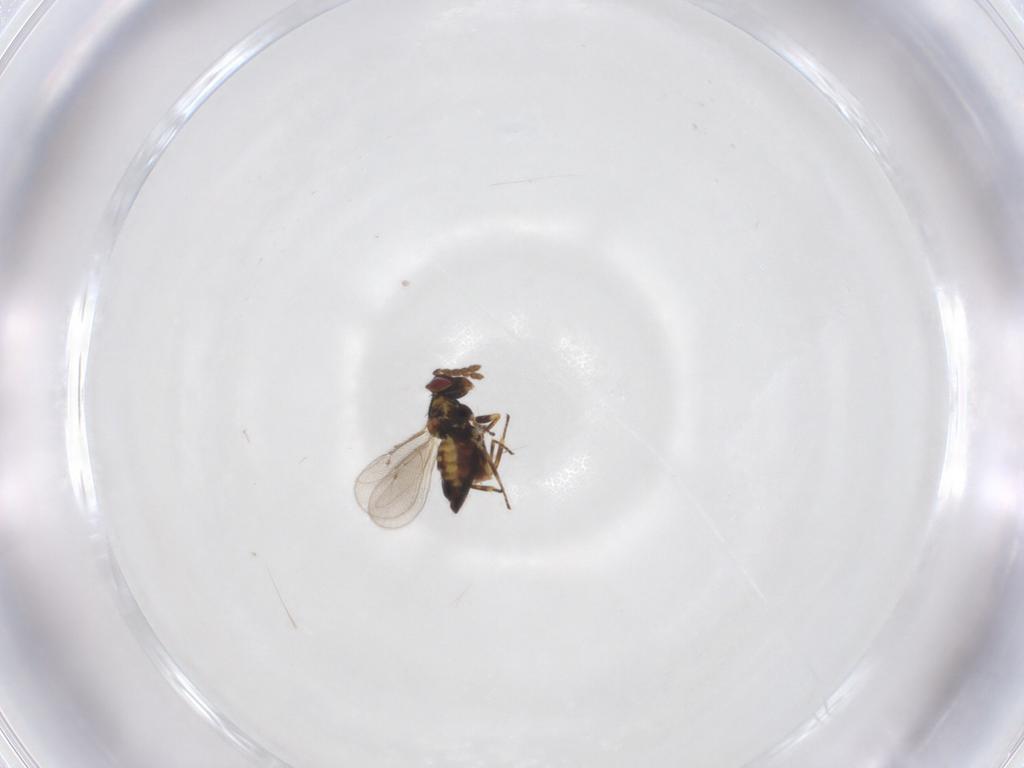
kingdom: Animalia
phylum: Arthropoda
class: Insecta
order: Hymenoptera
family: Eulophidae
